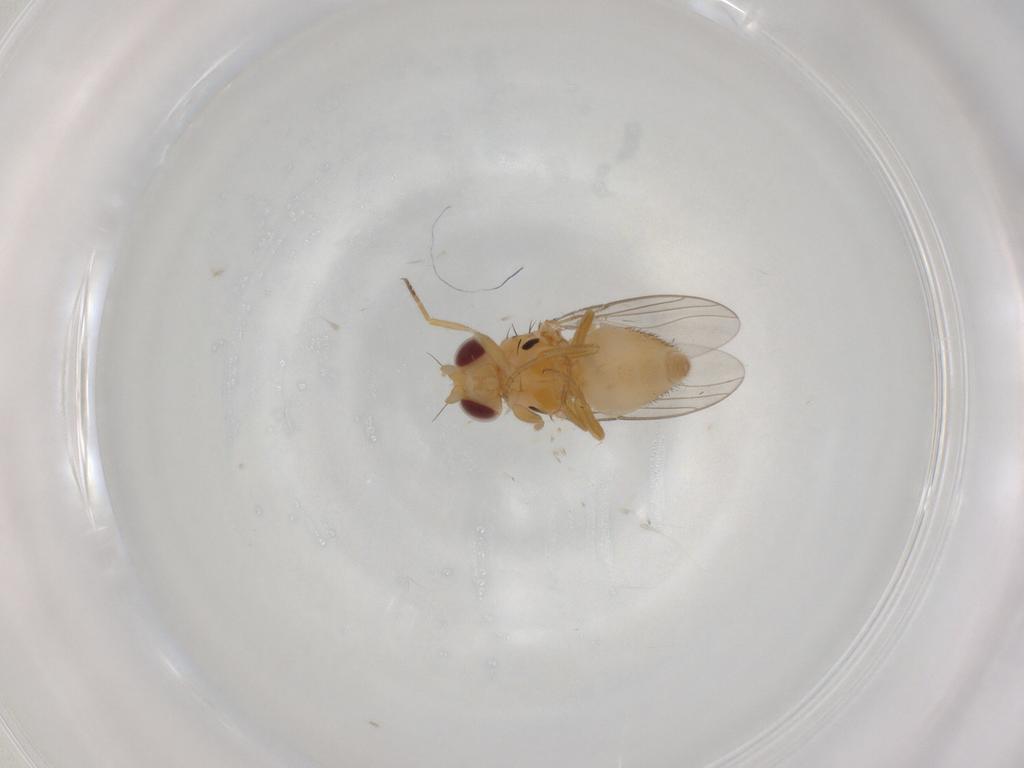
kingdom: Animalia
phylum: Arthropoda
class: Insecta
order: Diptera
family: Chloropidae
